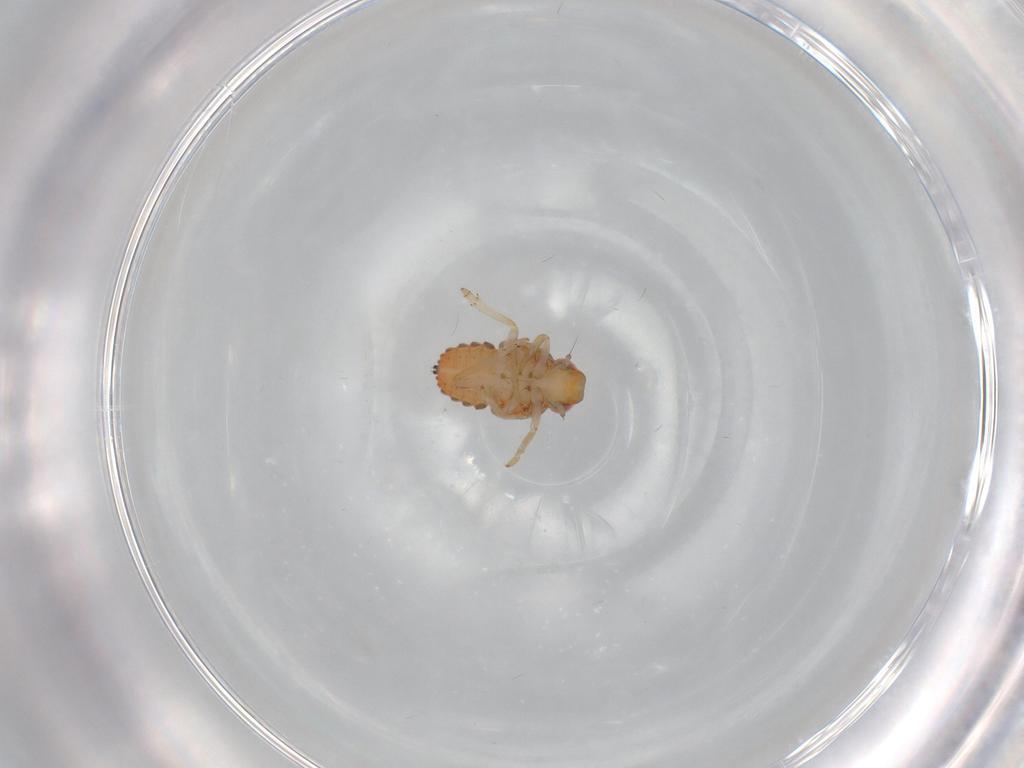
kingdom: Animalia
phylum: Arthropoda
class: Insecta
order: Hemiptera
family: Issidae
